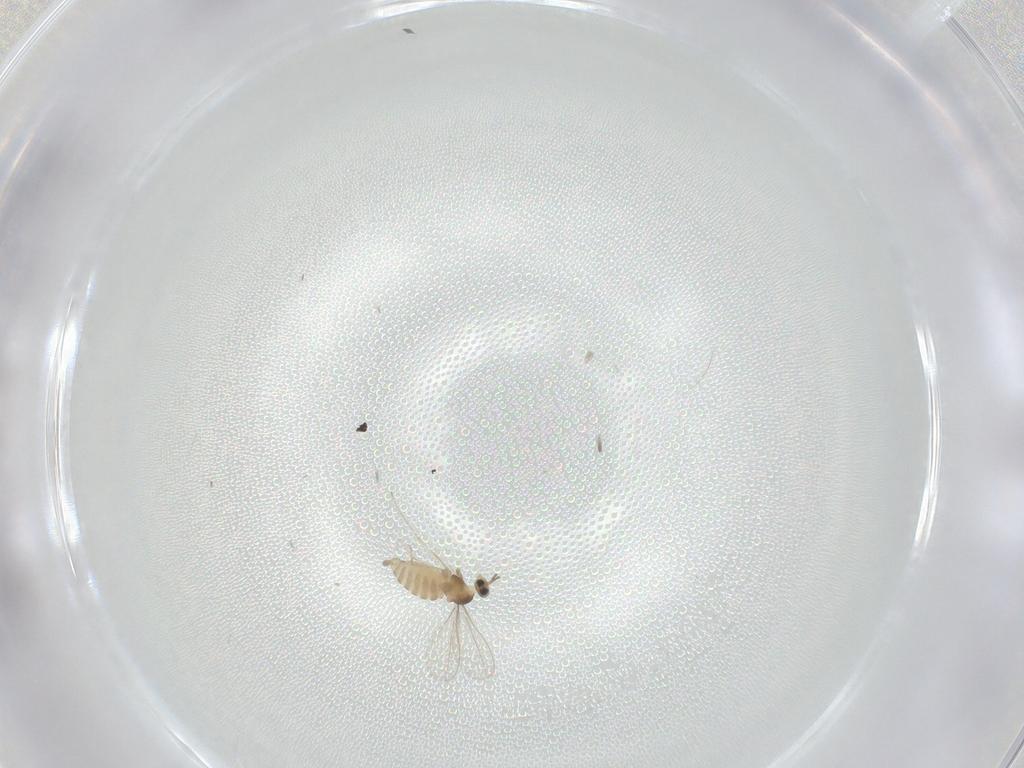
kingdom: Animalia
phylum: Arthropoda
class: Insecta
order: Diptera
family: Cecidomyiidae
